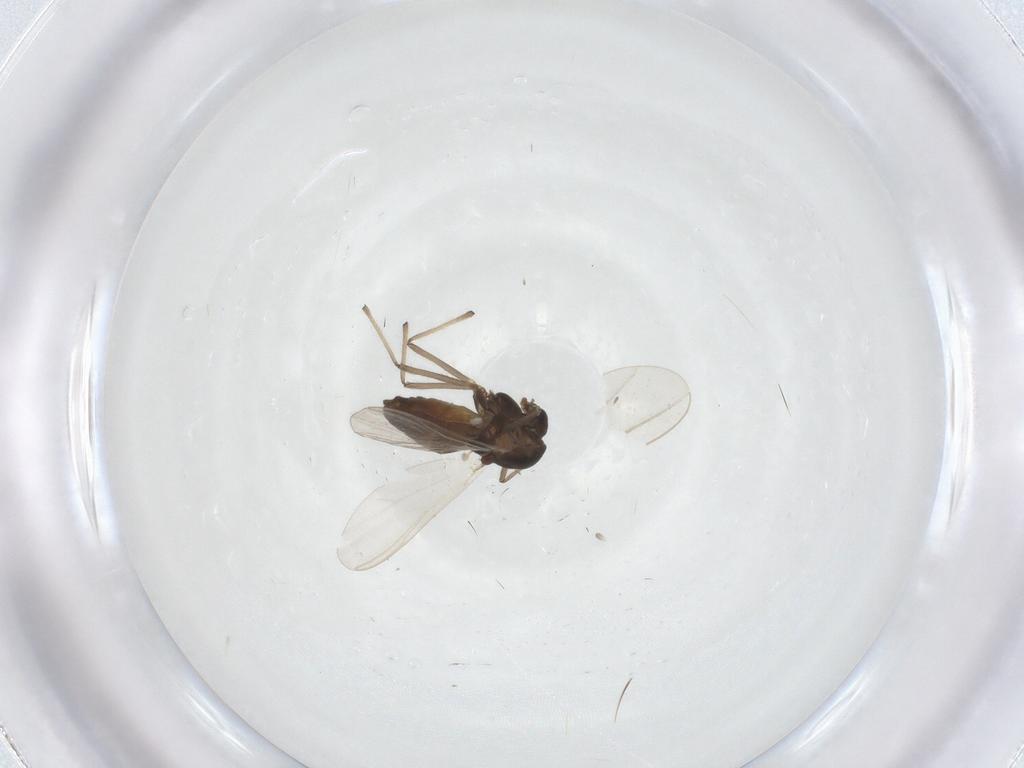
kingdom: Animalia
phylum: Arthropoda
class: Insecta
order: Diptera
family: Cecidomyiidae
